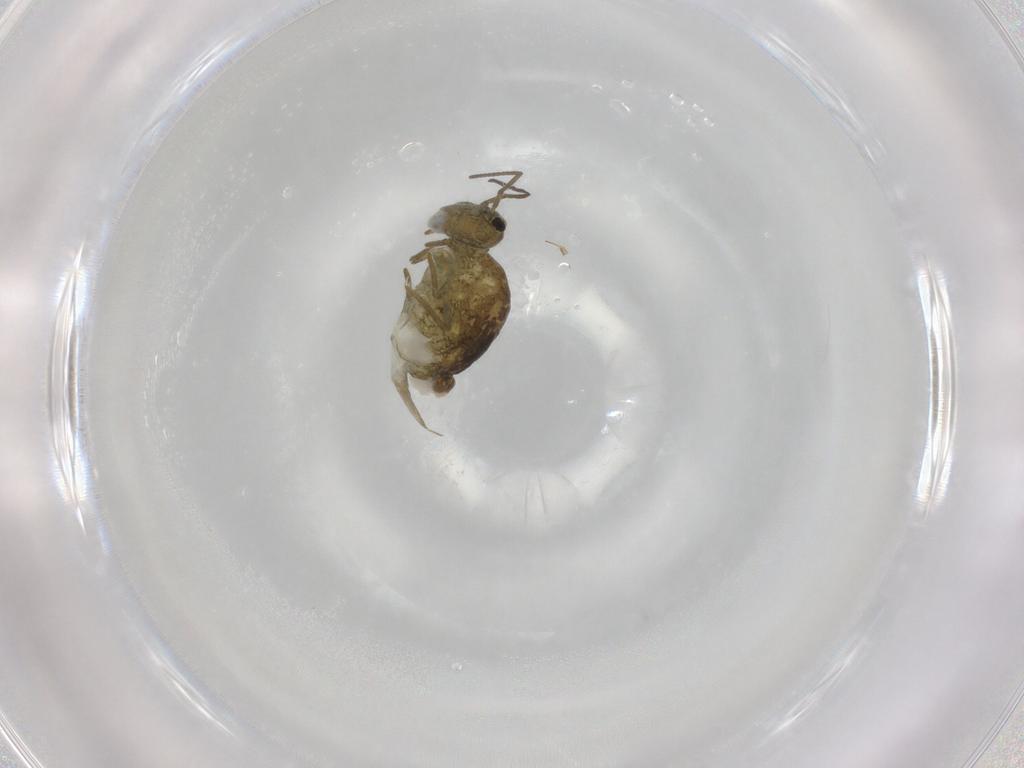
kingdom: Animalia
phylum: Arthropoda
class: Collembola
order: Symphypleona
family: Sminthuridae
